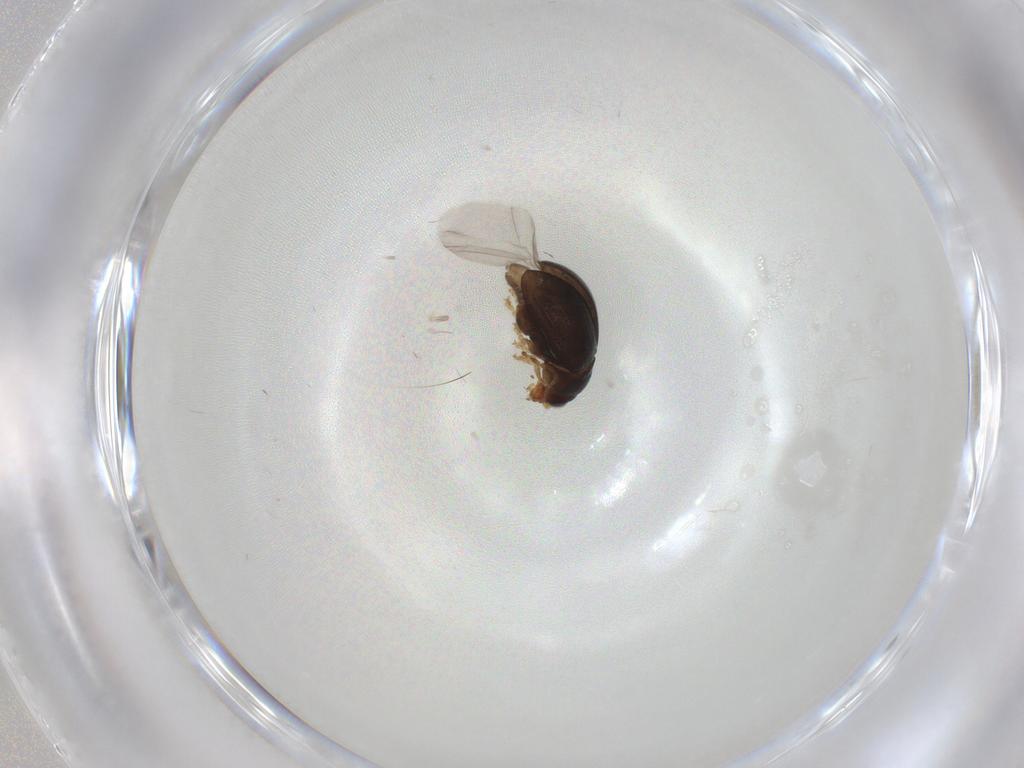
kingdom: Animalia
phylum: Arthropoda
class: Insecta
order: Coleoptera
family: Mordellidae
